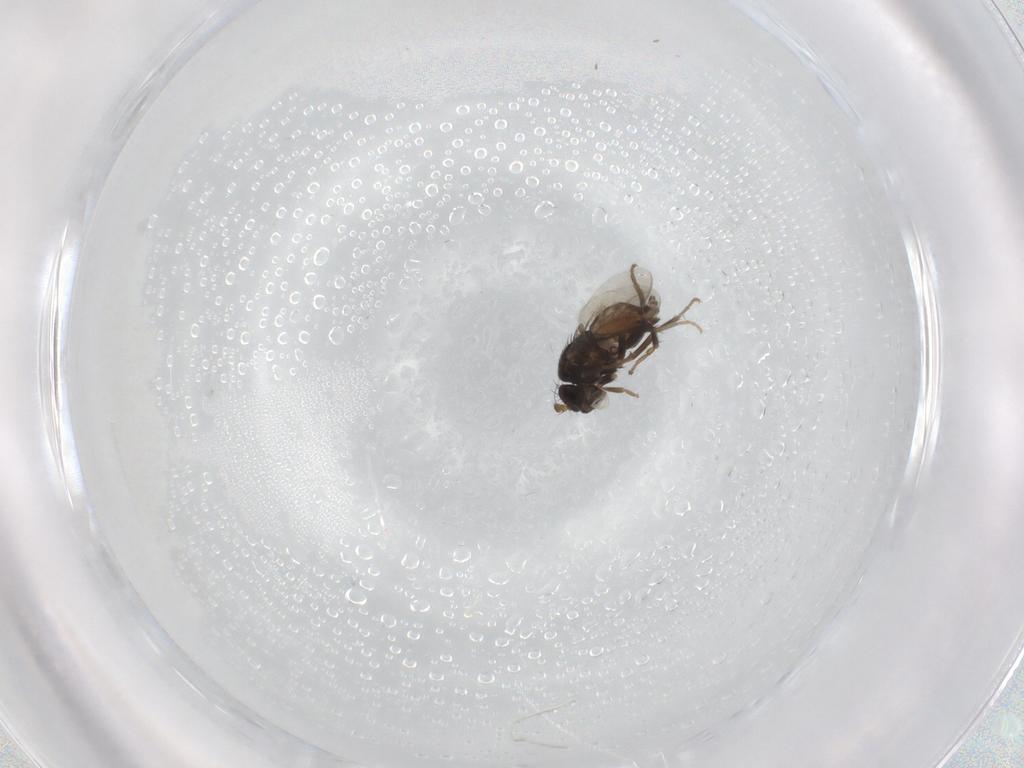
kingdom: Animalia
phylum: Arthropoda
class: Insecta
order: Diptera
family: Sphaeroceridae
